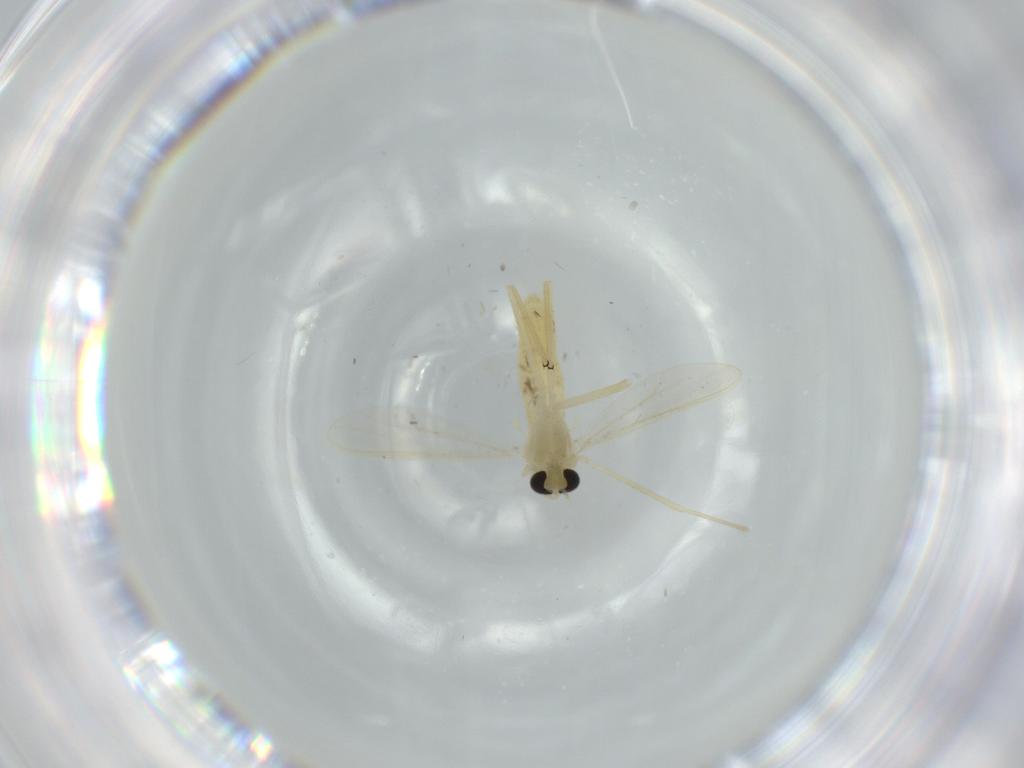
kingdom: Animalia
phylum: Arthropoda
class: Insecta
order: Diptera
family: Chironomidae
